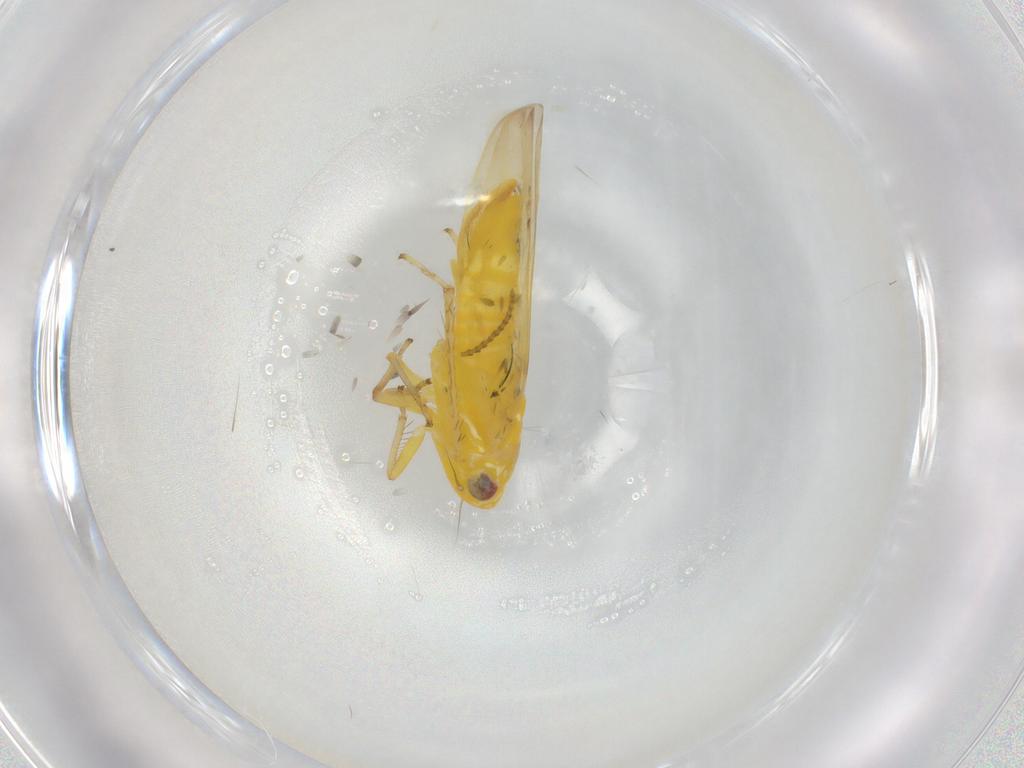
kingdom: Animalia
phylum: Arthropoda
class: Insecta
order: Hemiptera
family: Cicadellidae
